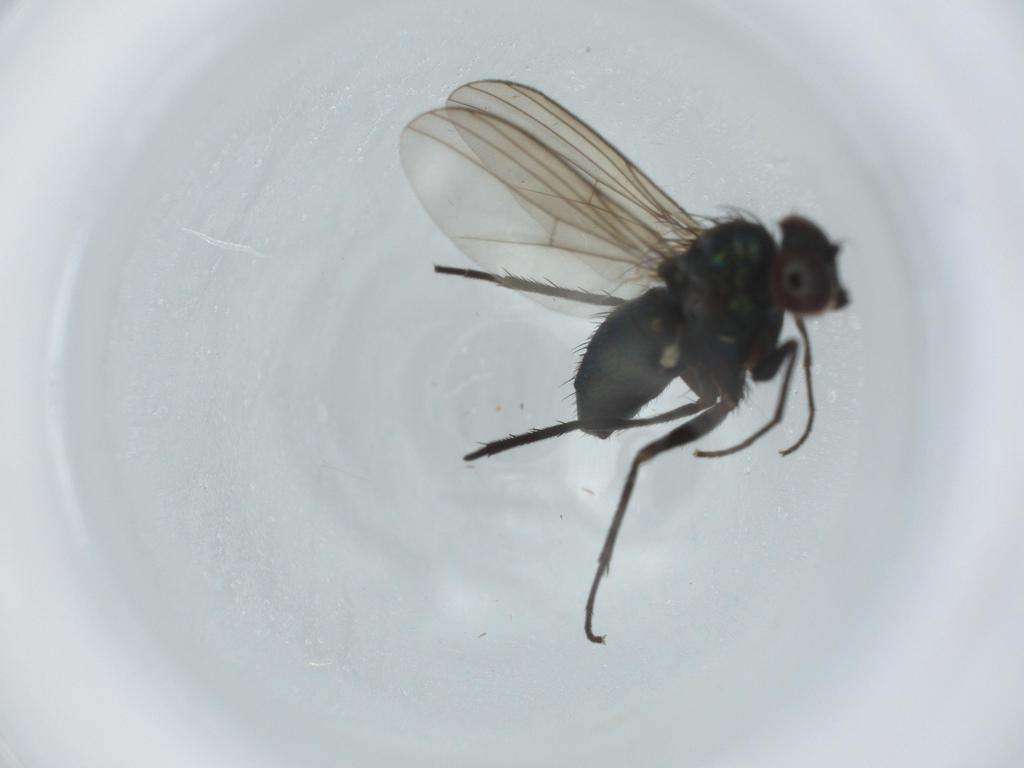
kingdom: Animalia
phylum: Arthropoda
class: Insecta
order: Diptera
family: Dolichopodidae
